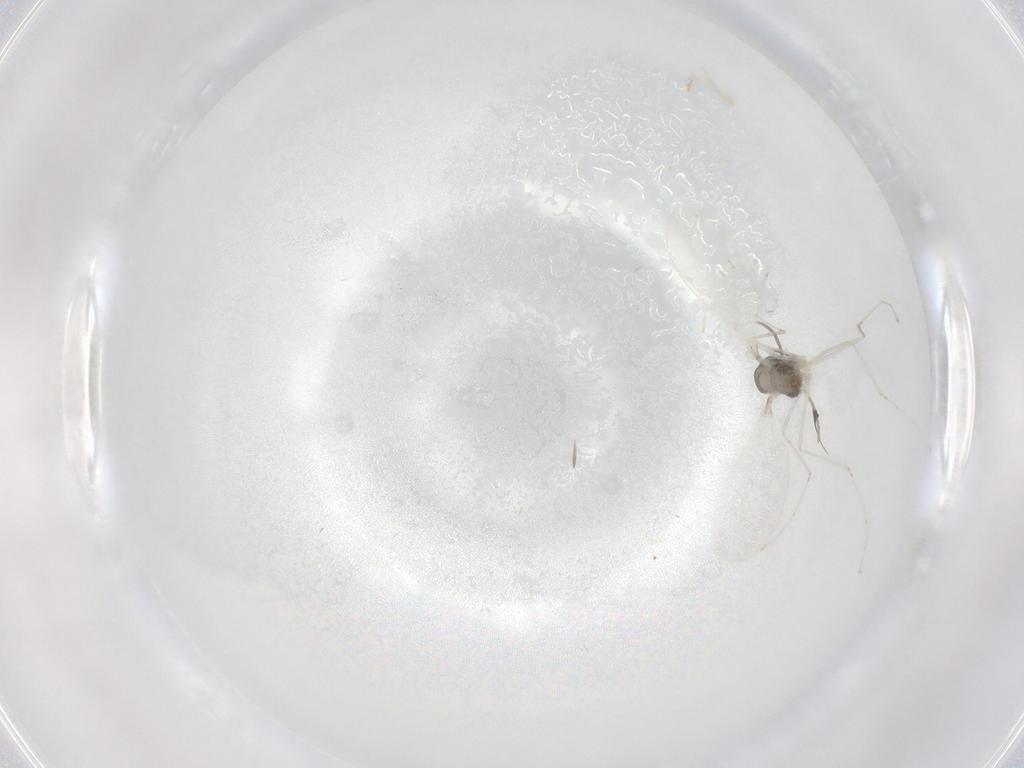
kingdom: Animalia
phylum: Arthropoda
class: Insecta
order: Diptera
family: Cecidomyiidae
